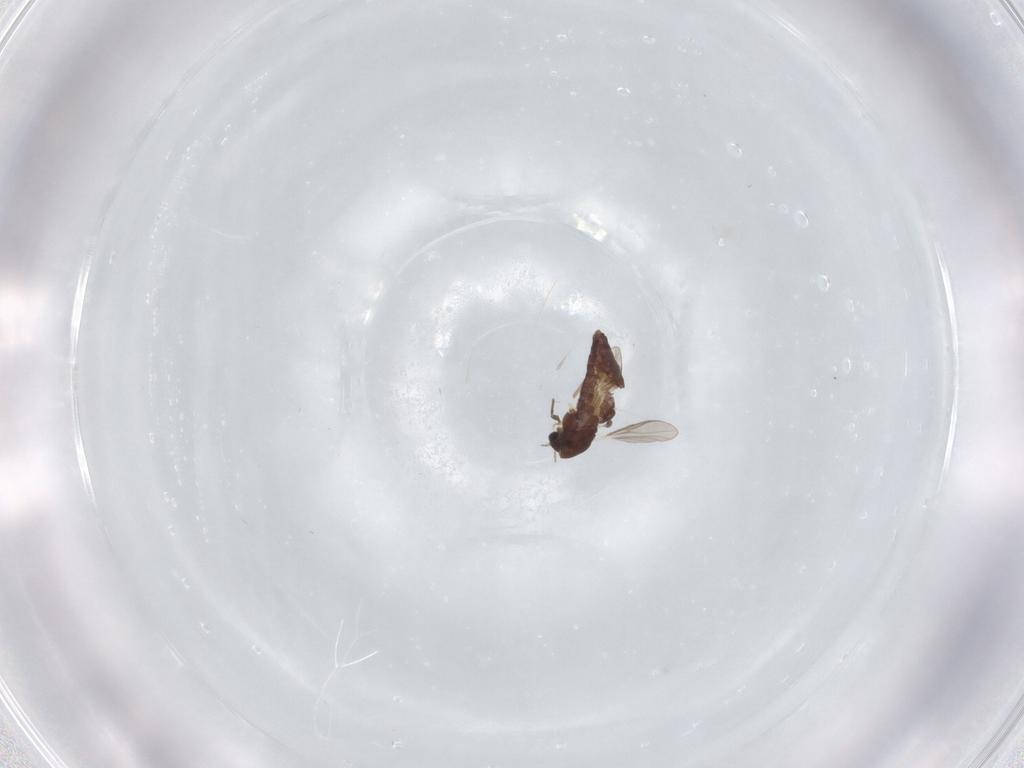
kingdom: Animalia
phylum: Arthropoda
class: Insecta
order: Diptera
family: Chironomidae
